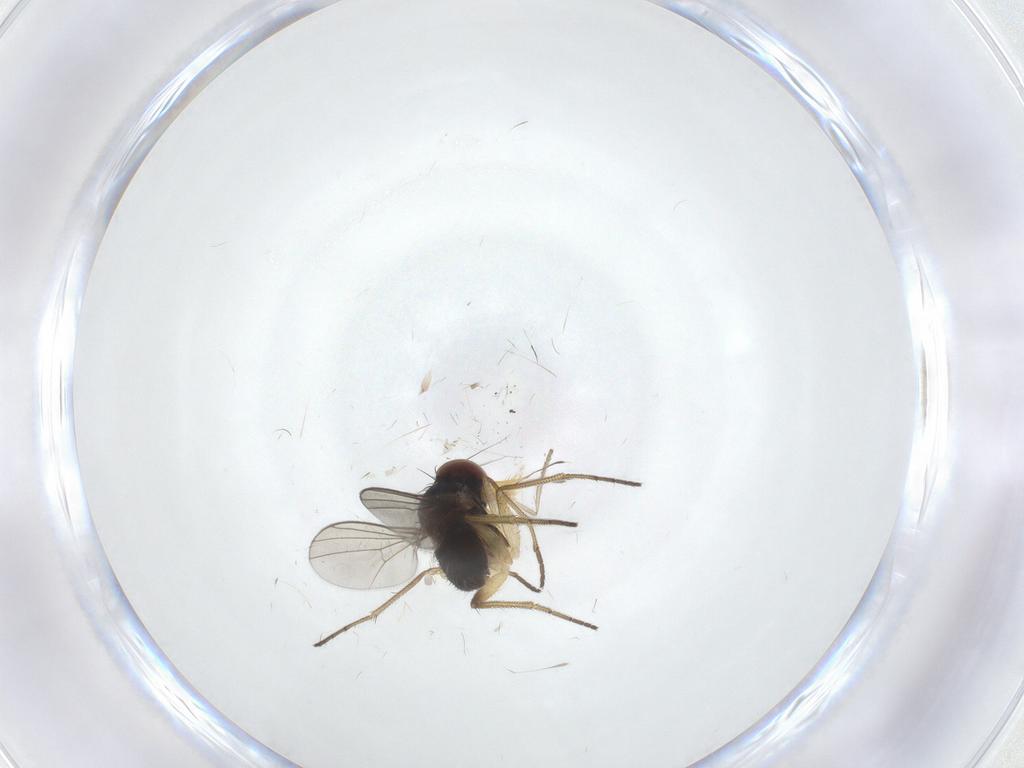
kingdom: Animalia
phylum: Arthropoda
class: Insecta
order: Diptera
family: Dolichopodidae
